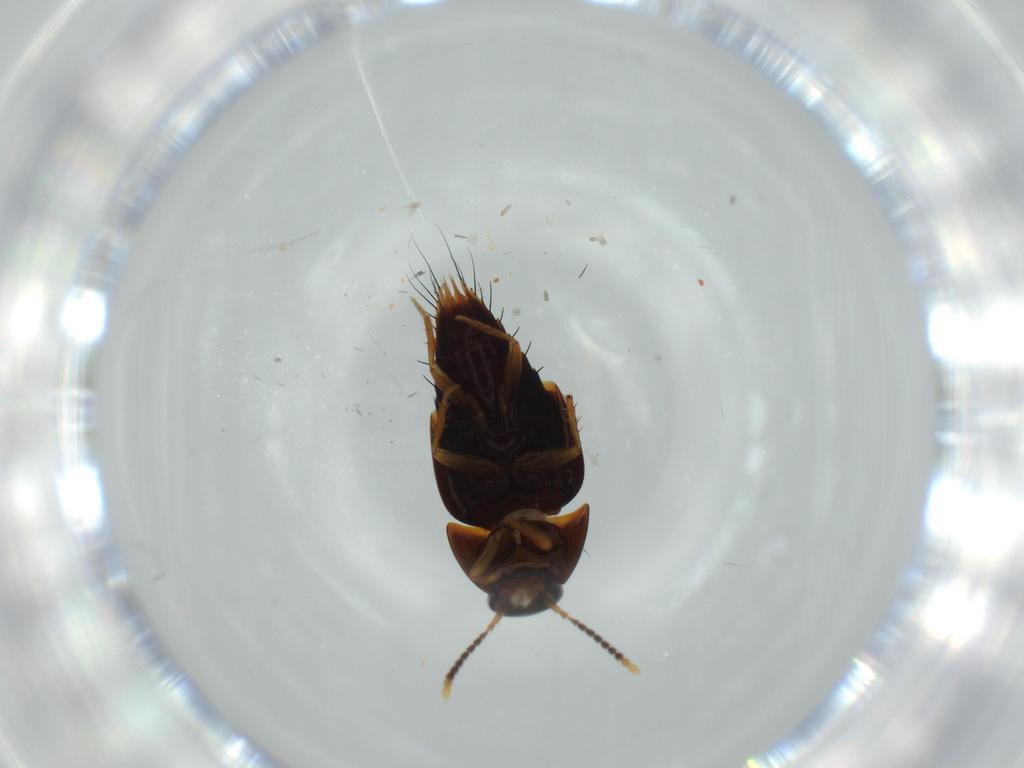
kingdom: Animalia
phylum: Arthropoda
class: Insecta
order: Coleoptera
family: Staphylinidae
